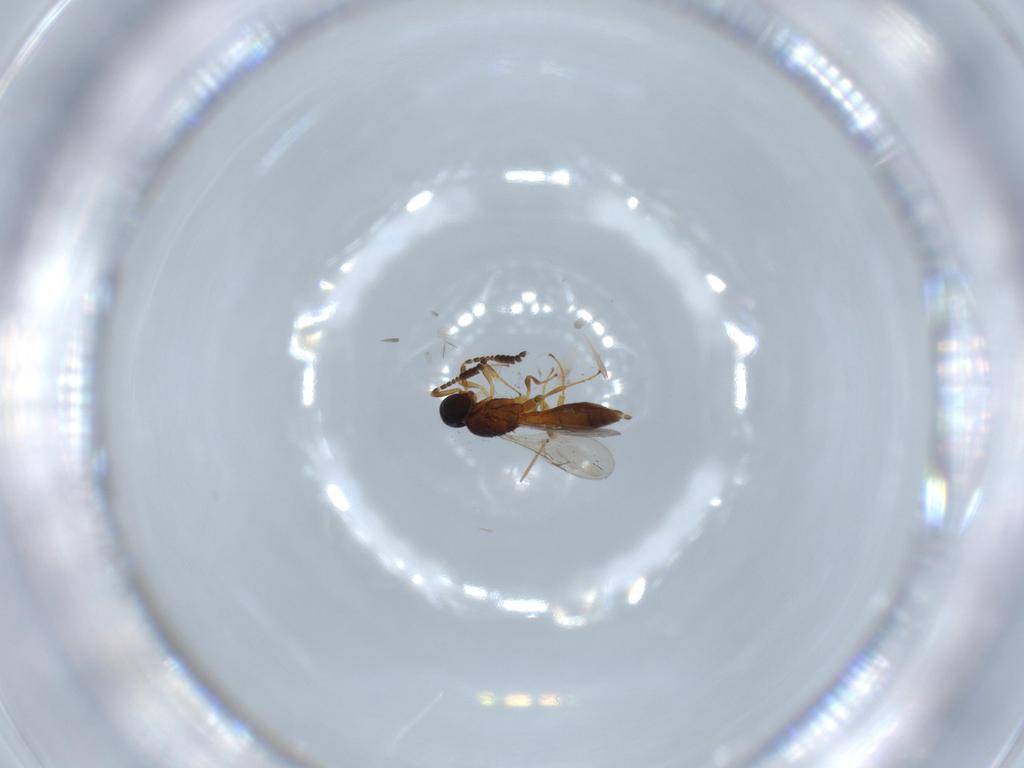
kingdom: Animalia
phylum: Arthropoda
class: Insecta
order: Hymenoptera
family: Scelionidae
